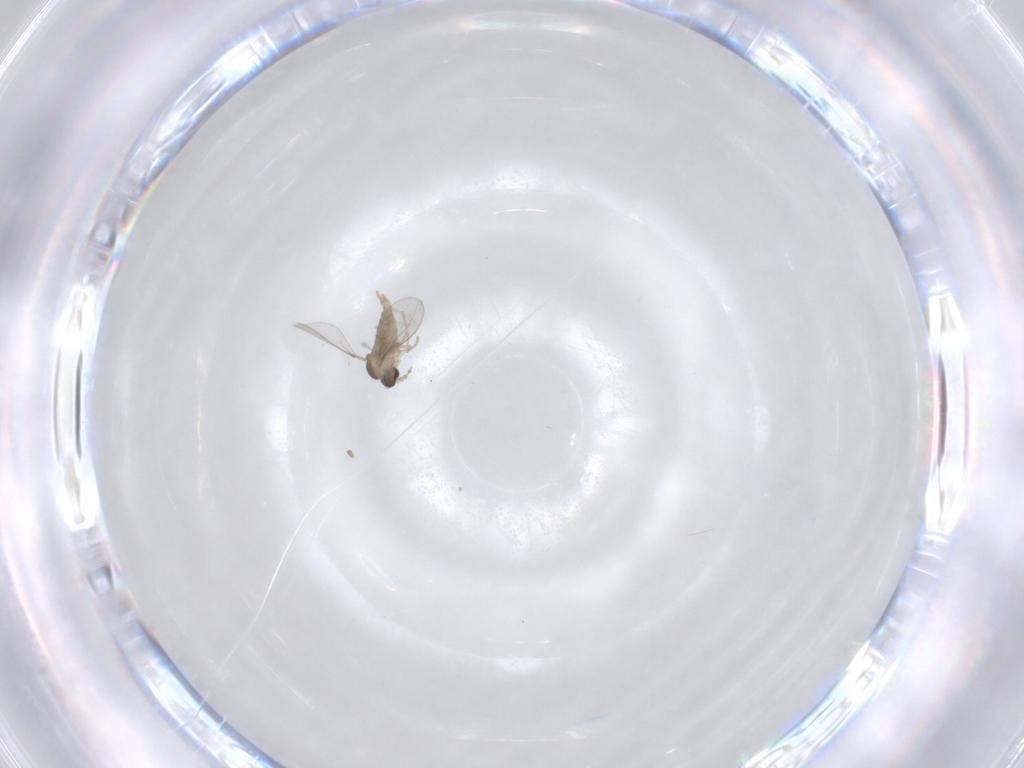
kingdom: Animalia
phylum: Arthropoda
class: Insecta
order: Diptera
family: Cecidomyiidae
